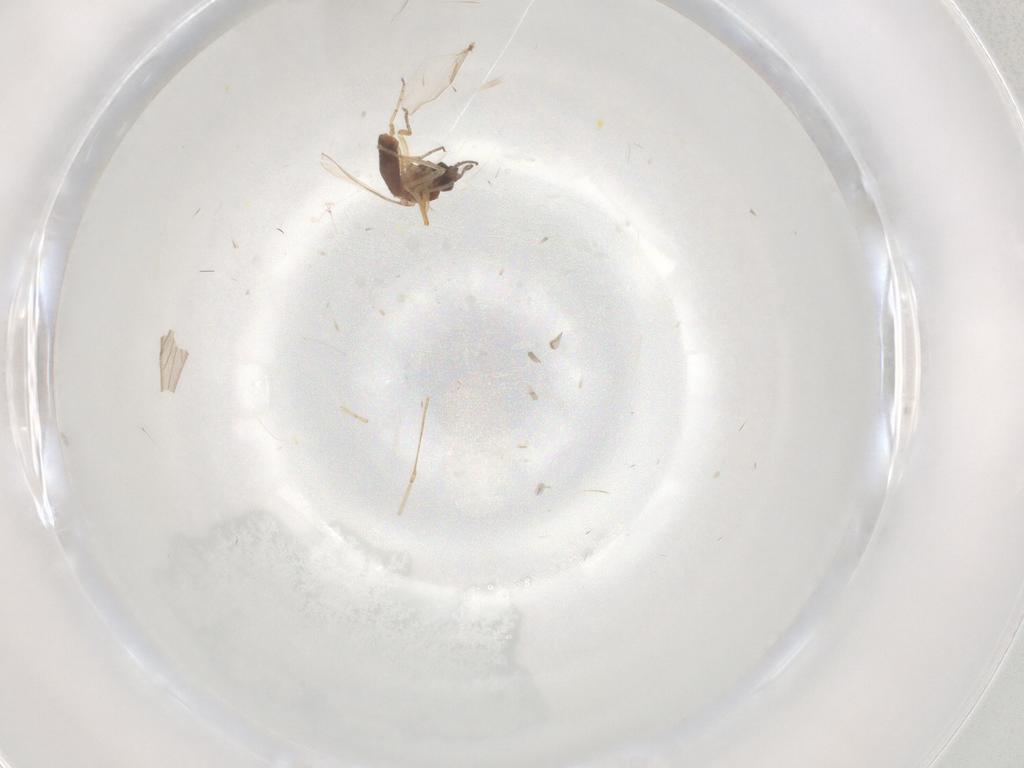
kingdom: Animalia
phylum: Arthropoda
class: Insecta
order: Diptera
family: Ceratopogonidae
